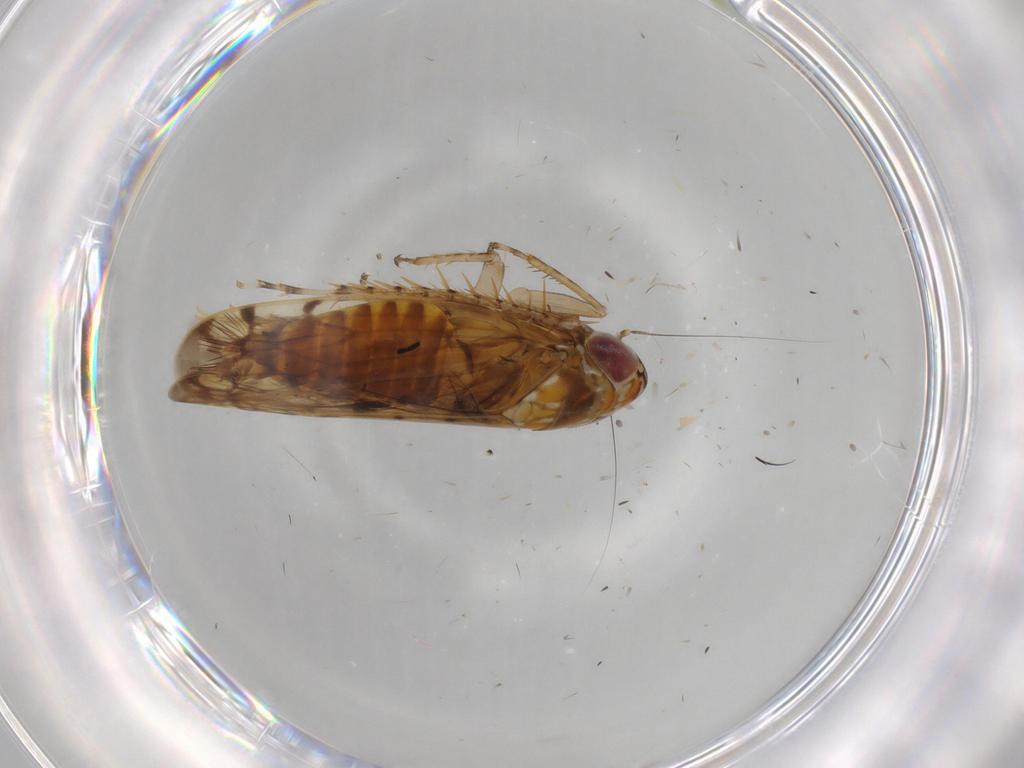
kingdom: Animalia
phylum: Arthropoda
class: Insecta
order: Hemiptera
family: Cicadellidae
